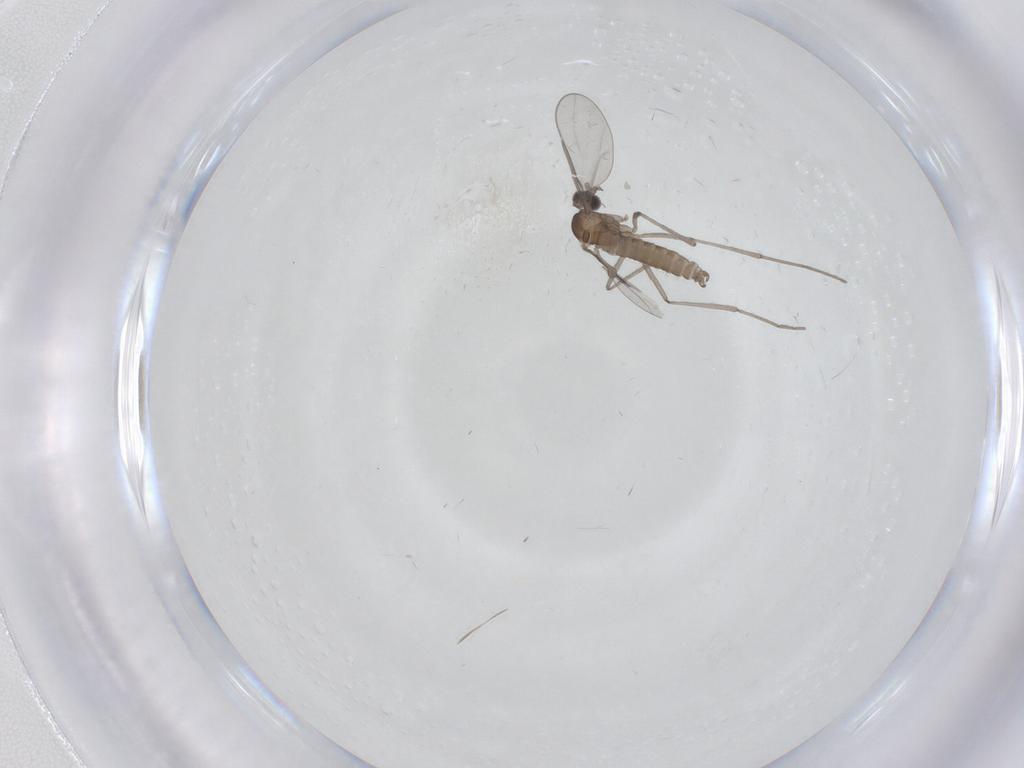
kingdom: Animalia
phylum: Arthropoda
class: Insecta
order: Diptera
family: Cecidomyiidae
